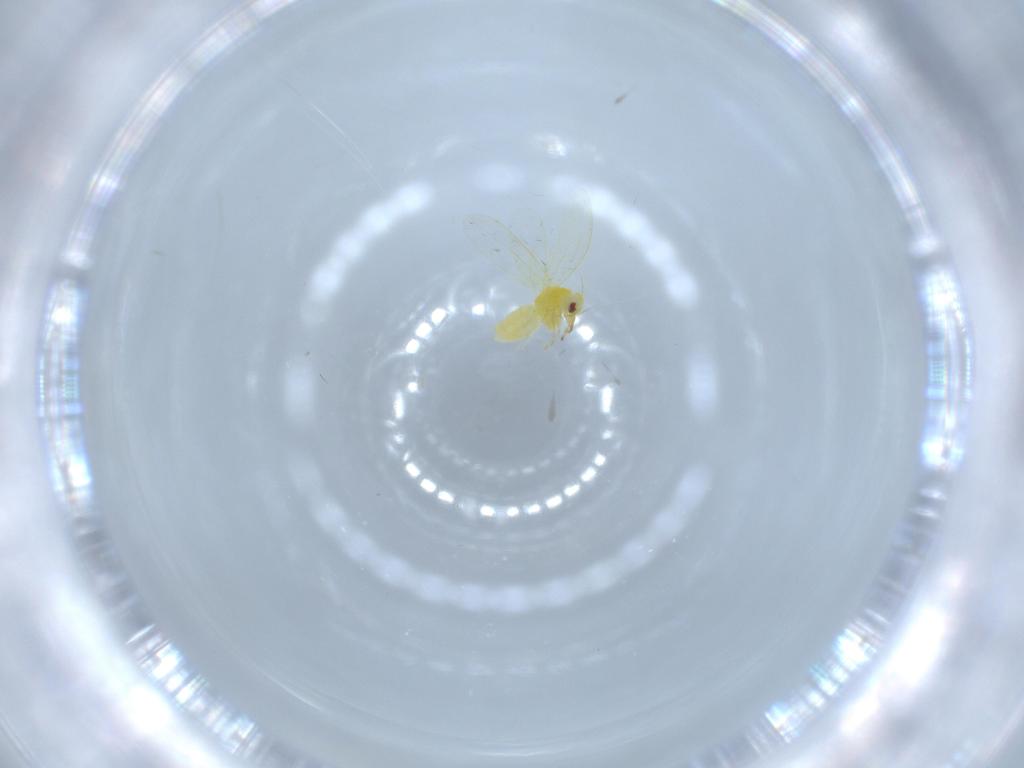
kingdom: Animalia
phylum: Arthropoda
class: Insecta
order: Hemiptera
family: Aleyrodidae
